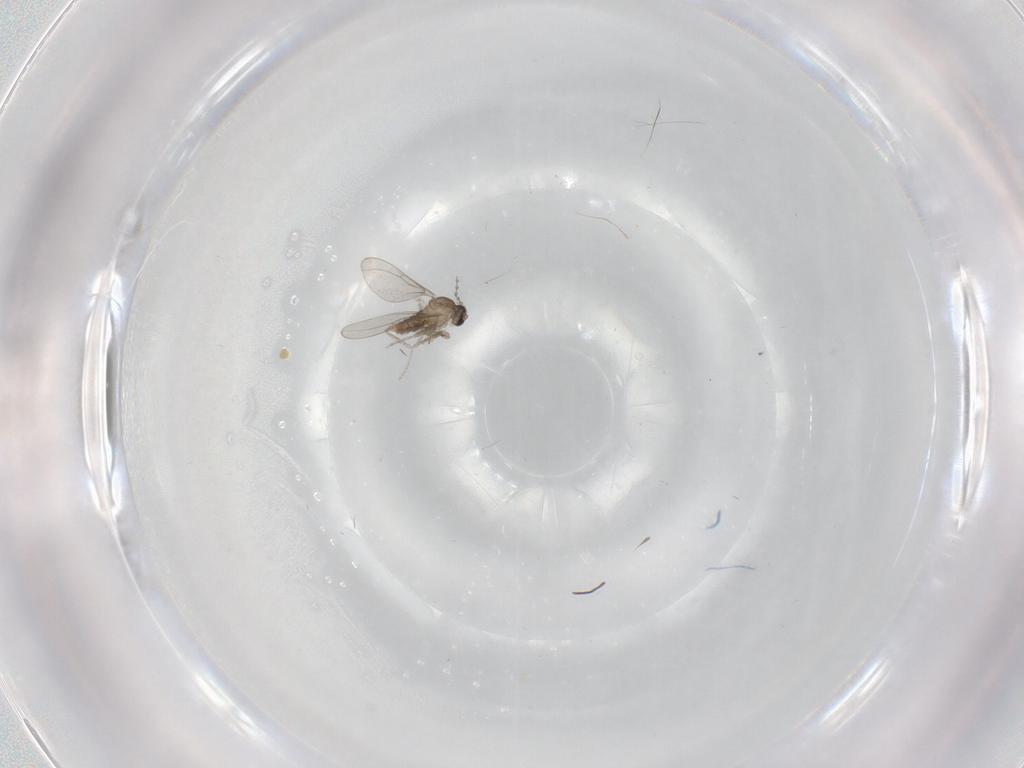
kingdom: Animalia
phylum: Arthropoda
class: Insecta
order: Diptera
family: Cecidomyiidae
